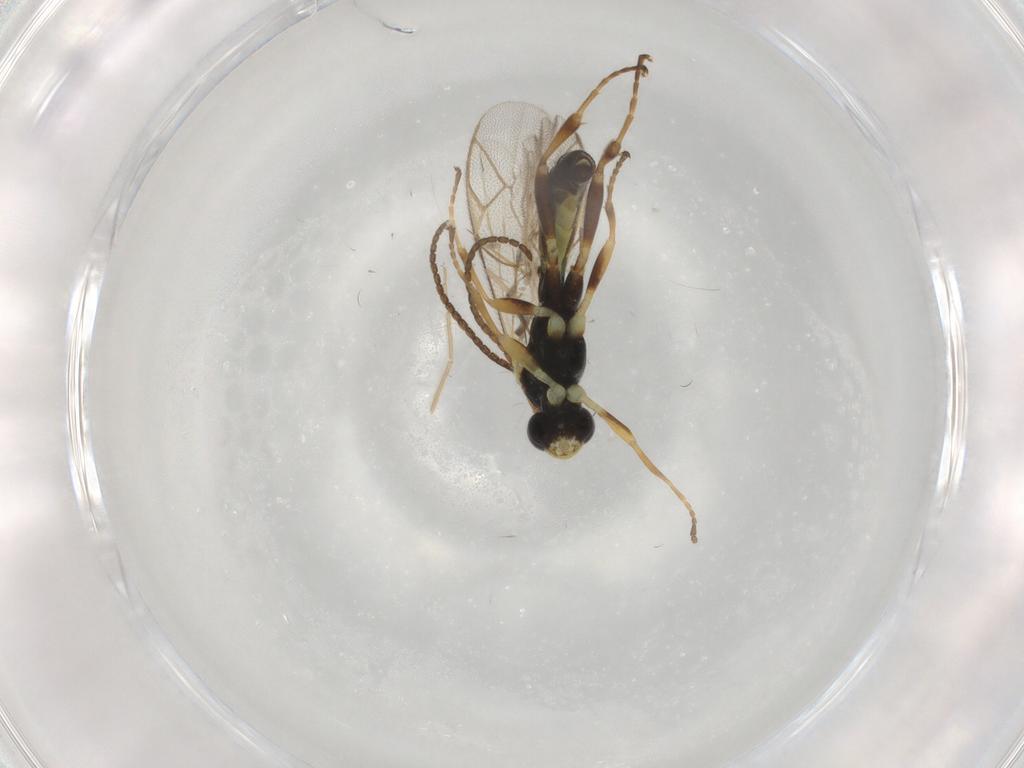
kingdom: Animalia
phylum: Arthropoda
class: Insecta
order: Hymenoptera
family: Ichneumonidae
